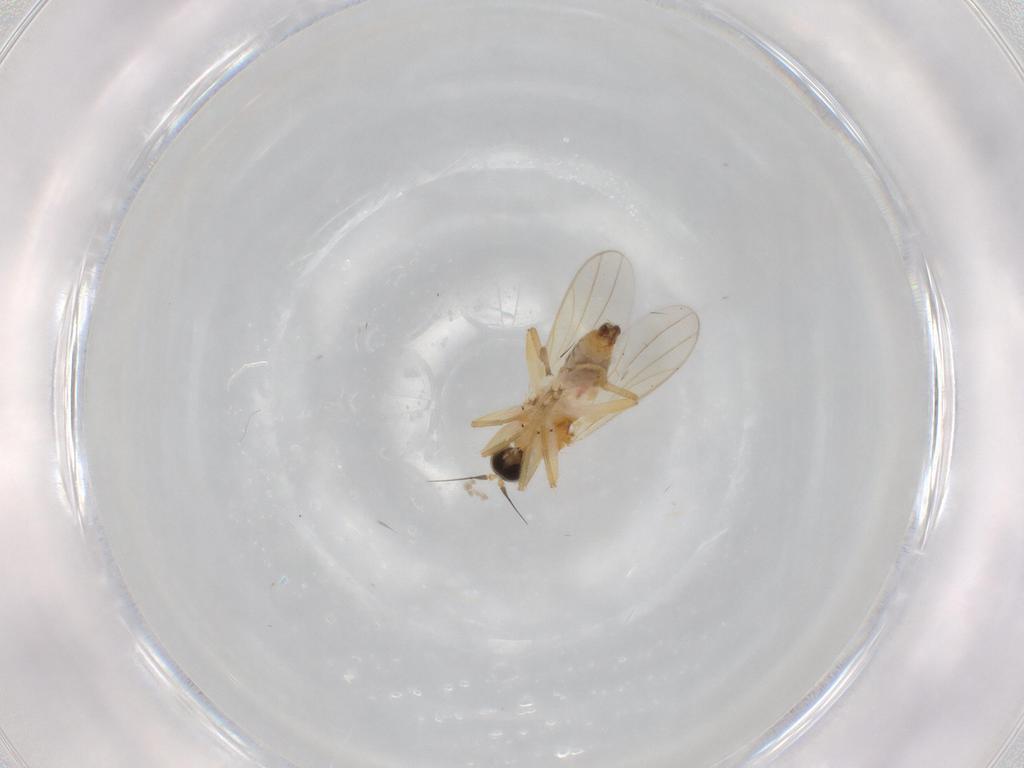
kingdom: Animalia
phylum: Arthropoda
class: Insecta
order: Diptera
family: Hybotidae
